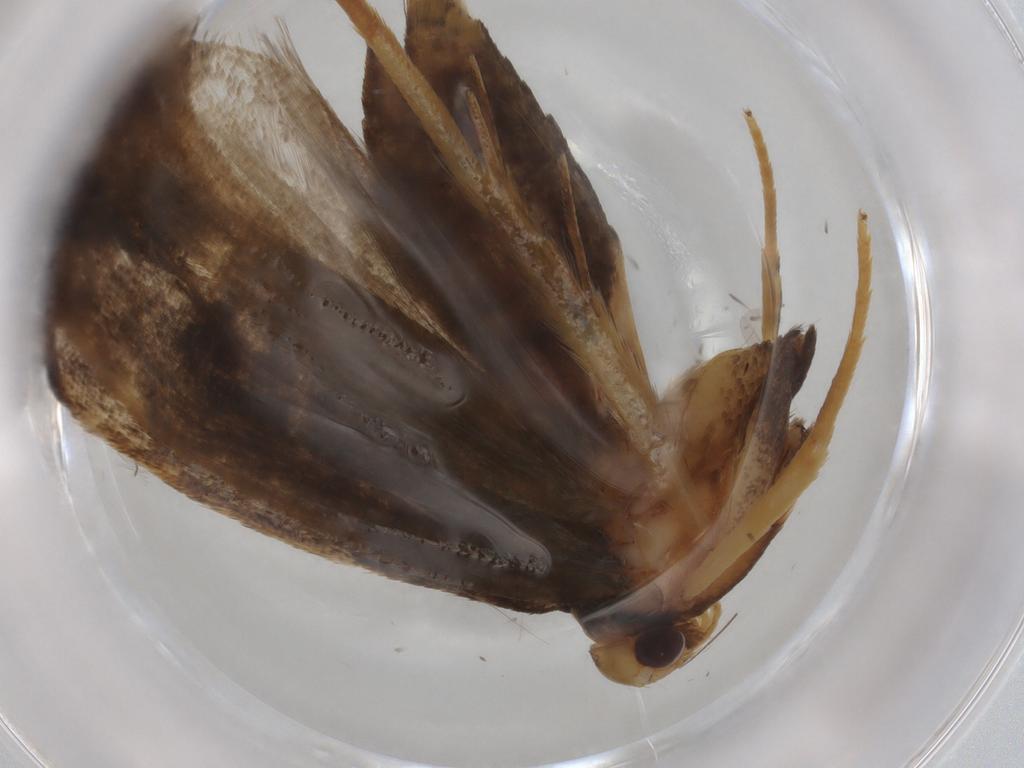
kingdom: Animalia
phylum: Arthropoda
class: Insecta
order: Lepidoptera
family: Lecithoceridae
